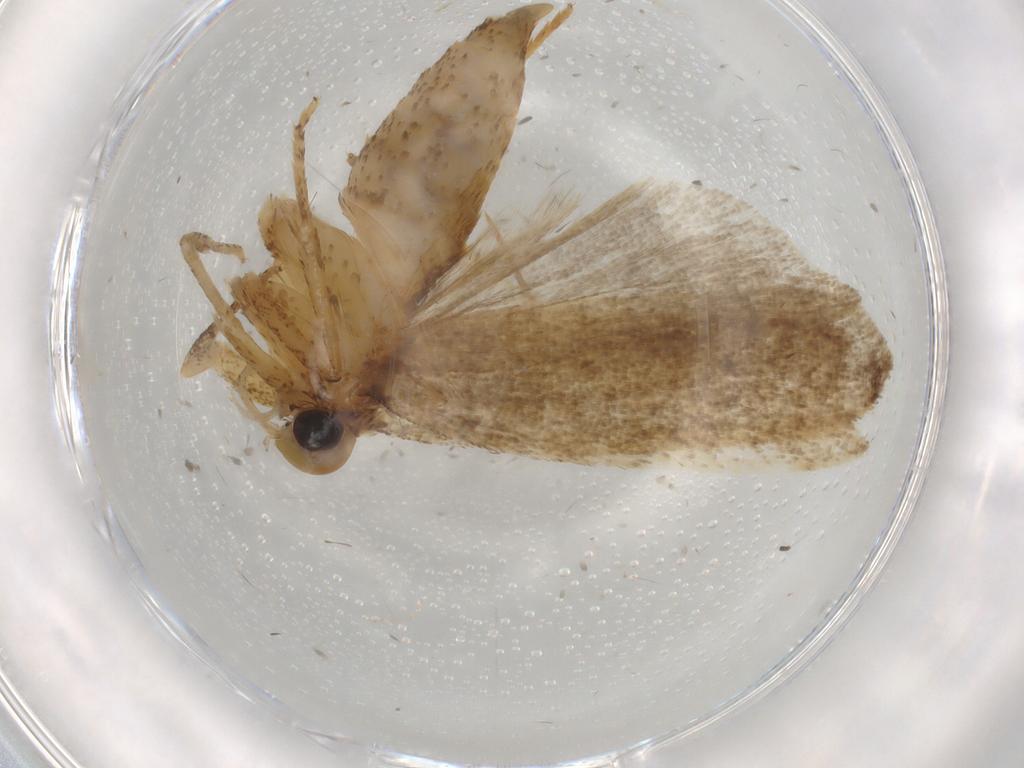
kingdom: Animalia
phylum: Arthropoda
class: Insecta
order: Lepidoptera
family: Autostichidae
